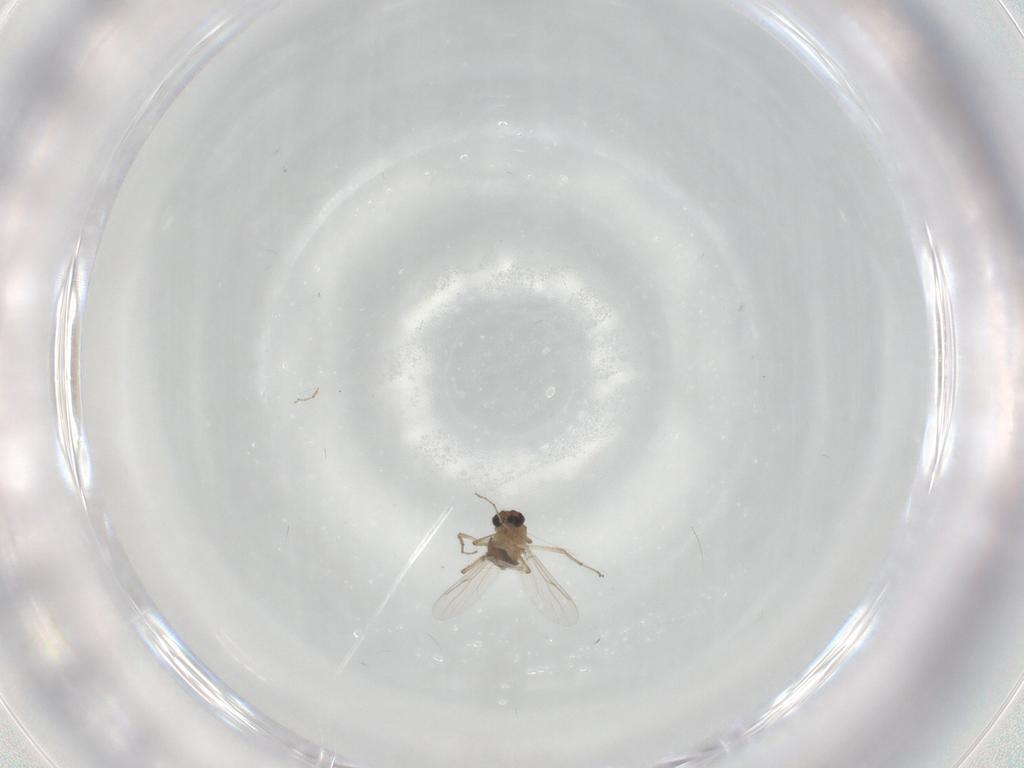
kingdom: Animalia
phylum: Arthropoda
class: Insecta
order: Diptera
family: Ceratopogonidae
